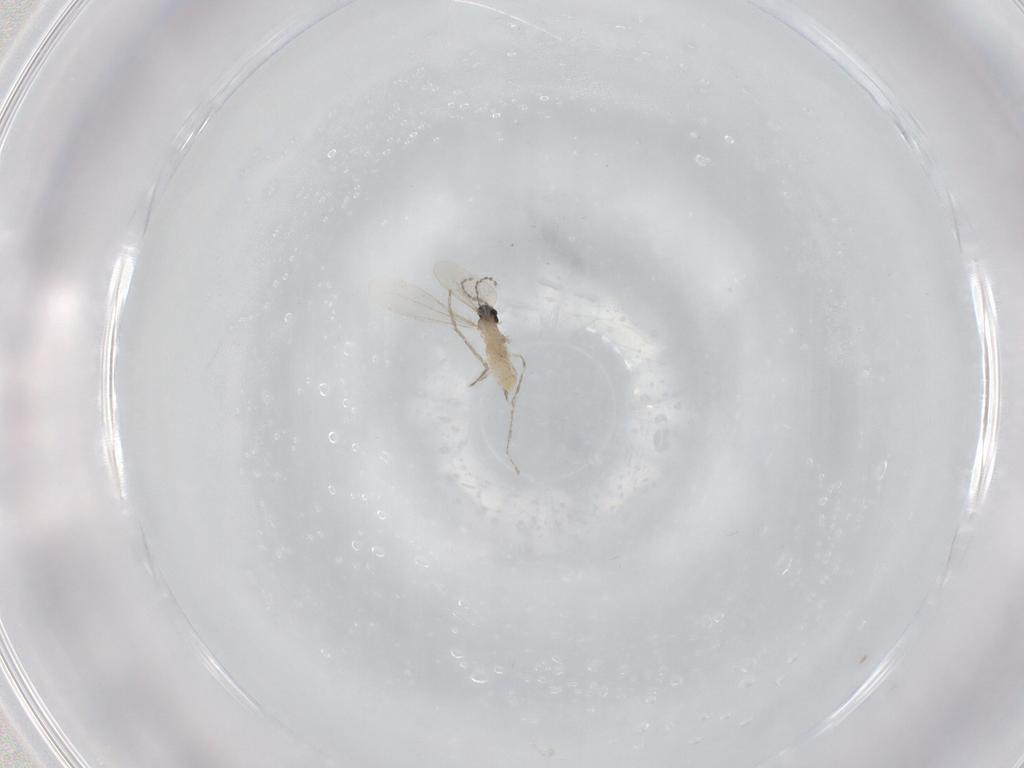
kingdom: Animalia
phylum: Arthropoda
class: Insecta
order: Diptera
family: Cecidomyiidae
